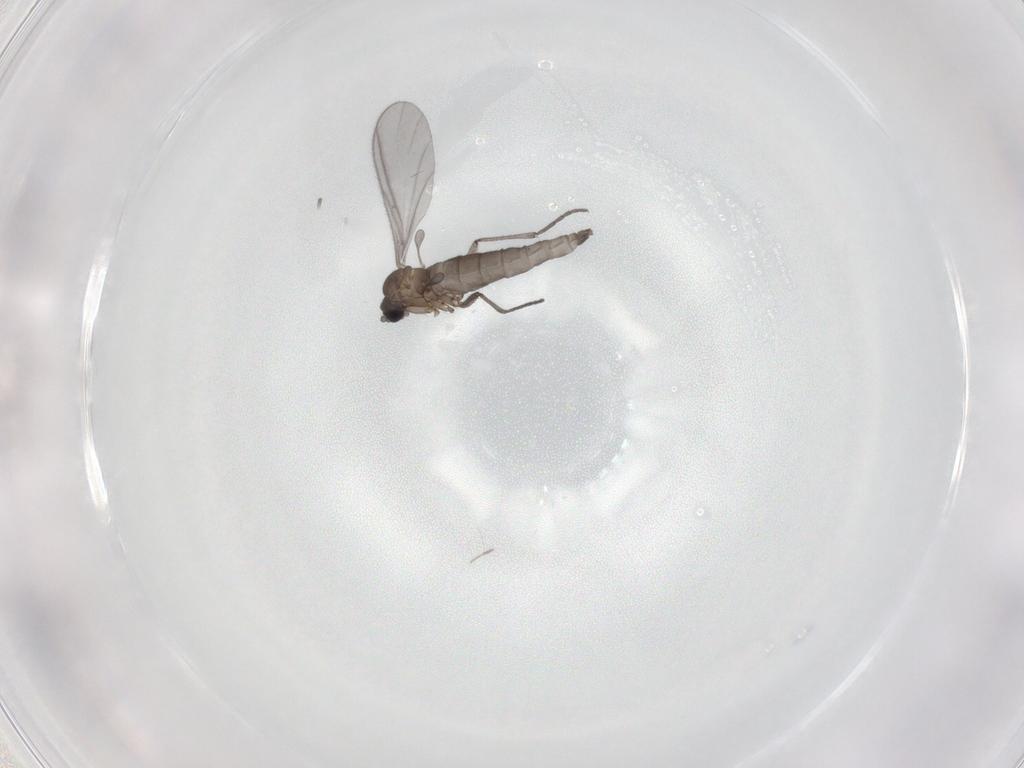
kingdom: Animalia
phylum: Arthropoda
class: Insecta
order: Diptera
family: Sciaridae
